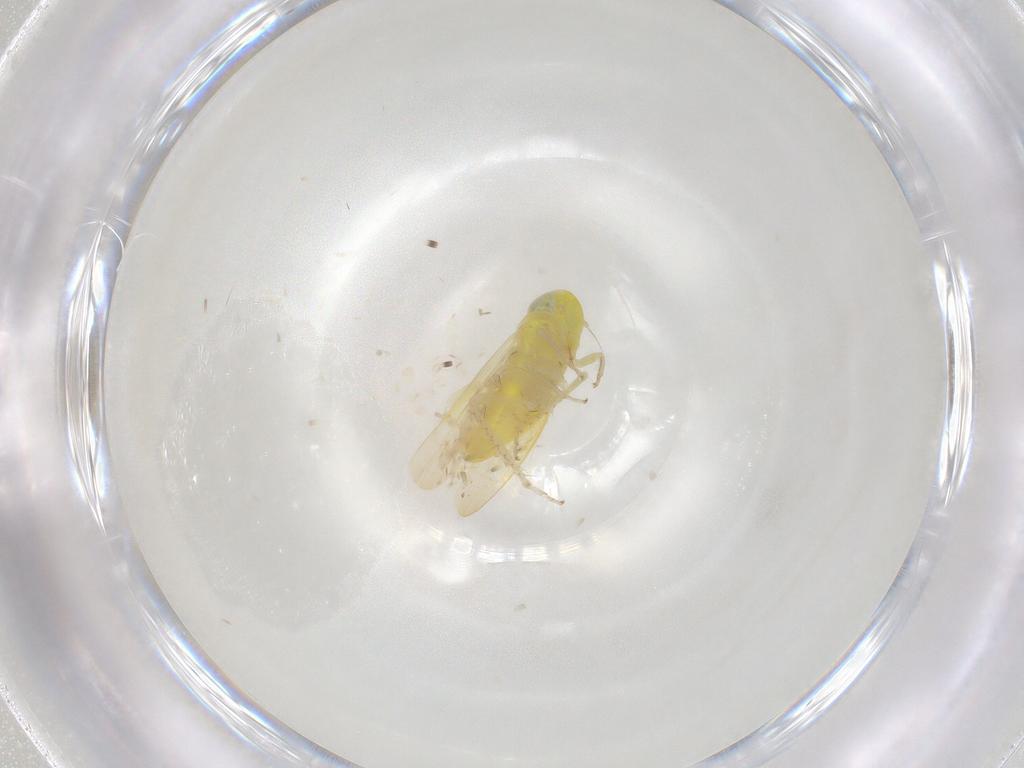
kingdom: Animalia
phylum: Arthropoda
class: Insecta
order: Hemiptera
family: Cicadellidae
